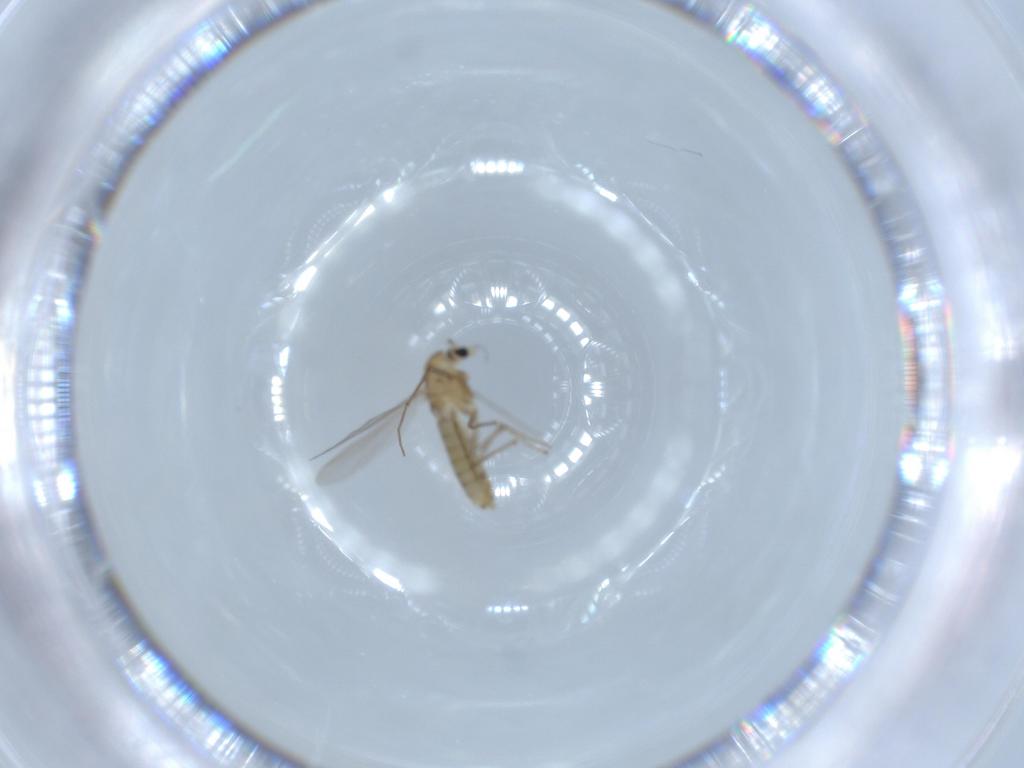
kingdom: Animalia
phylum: Arthropoda
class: Insecta
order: Diptera
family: Chironomidae
